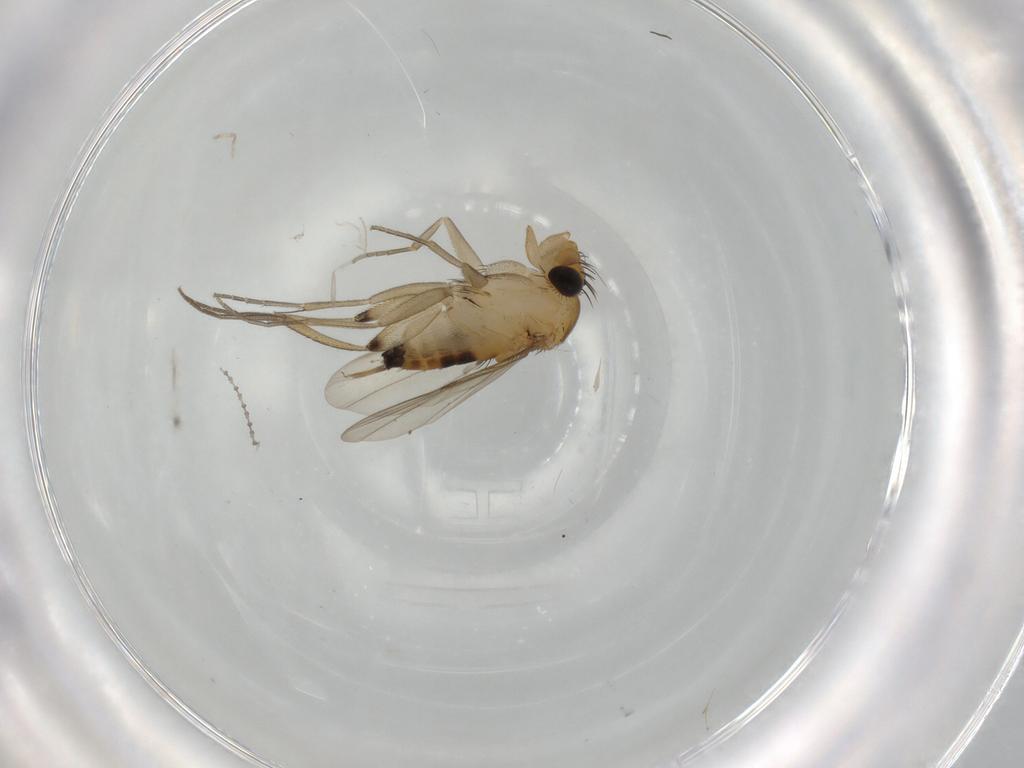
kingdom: Animalia
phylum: Arthropoda
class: Insecta
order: Diptera
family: Phoridae
